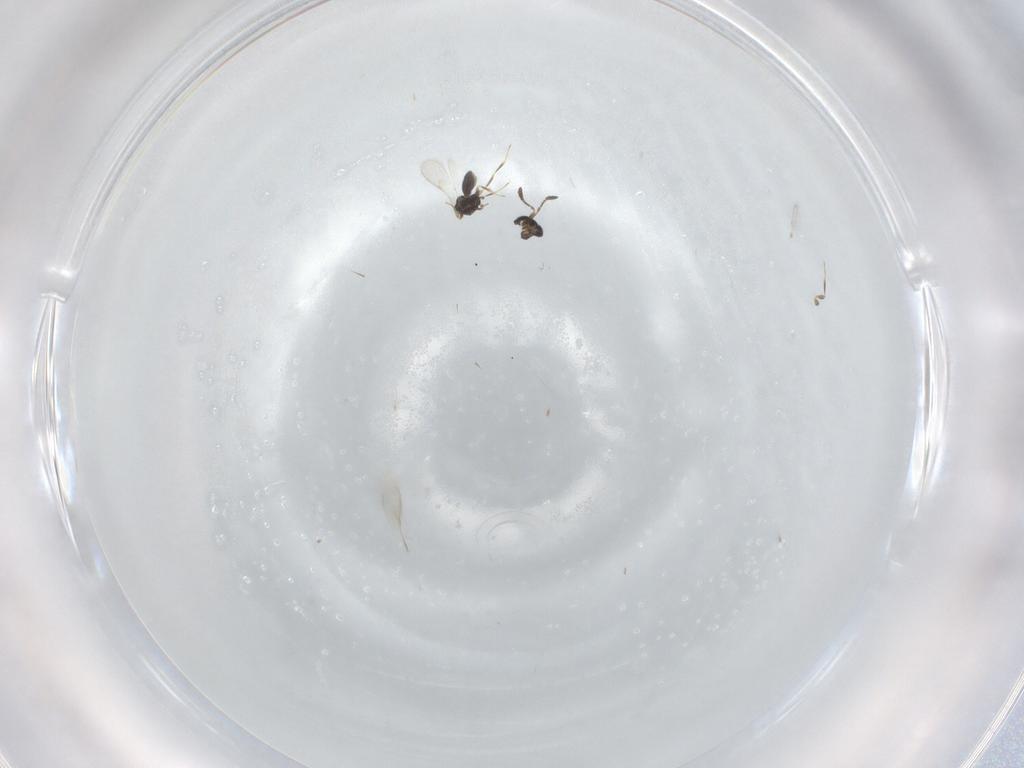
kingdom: Animalia
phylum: Arthropoda
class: Insecta
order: Hymenoptera
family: Scelionidae
